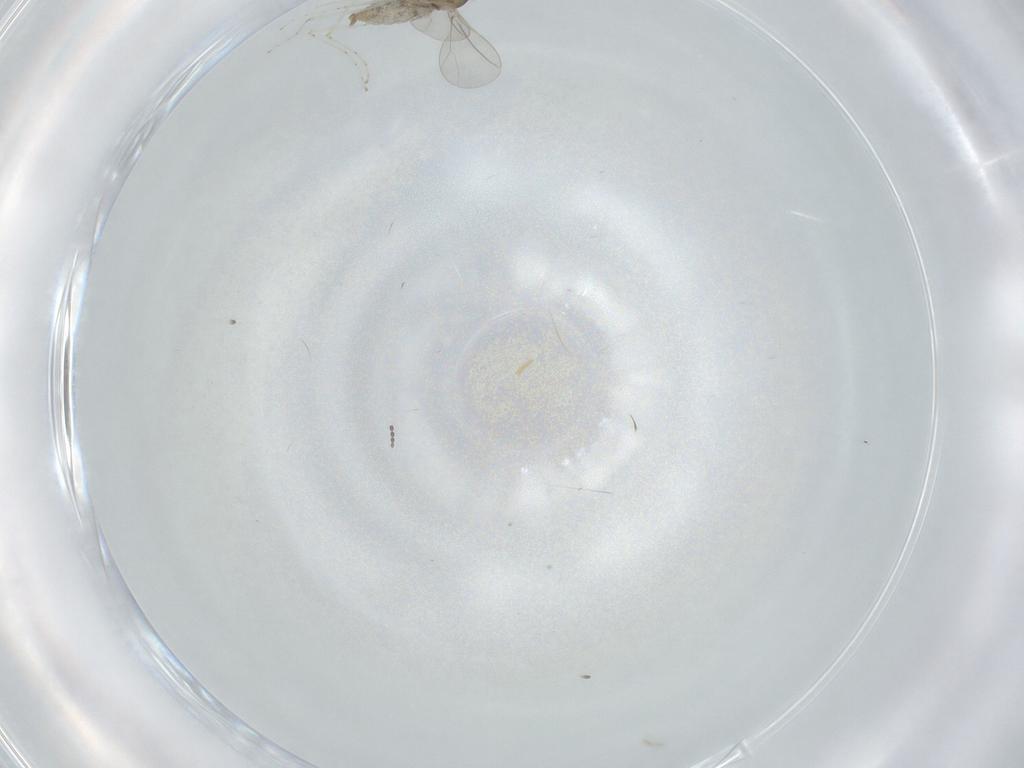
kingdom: Animalia
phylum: Arthropoda
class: Insecta
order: Diptera
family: Cecidomyiidae
